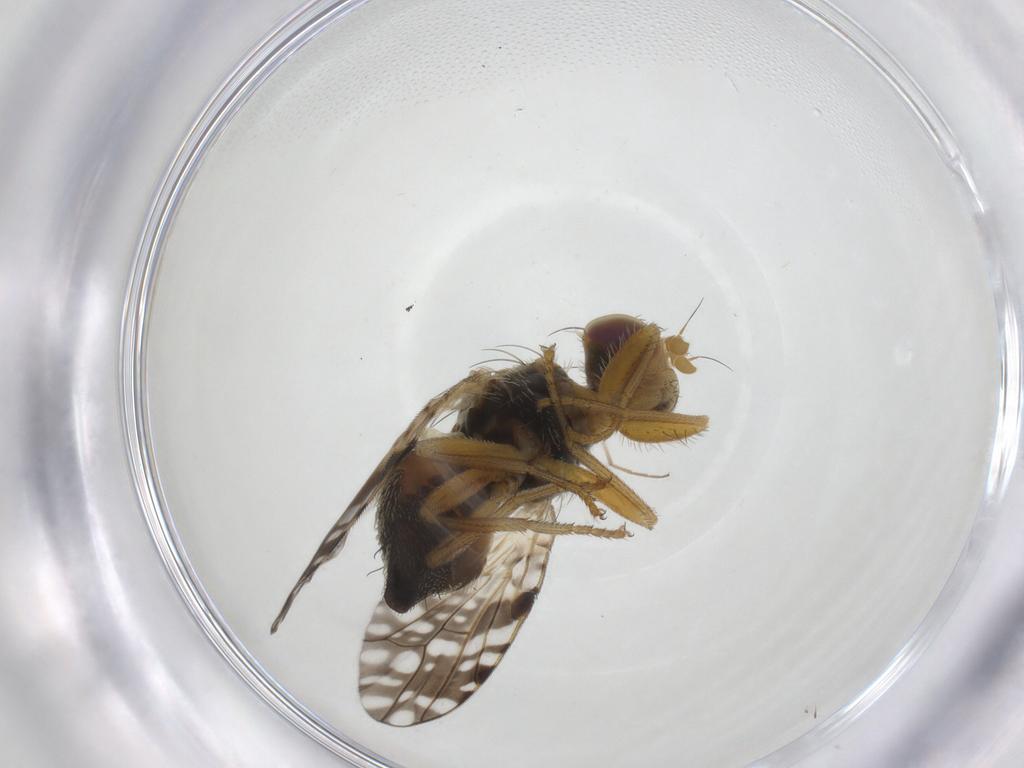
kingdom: Animalia
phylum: Arthropoda
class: Insecta
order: Diptera
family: Tephritidae
